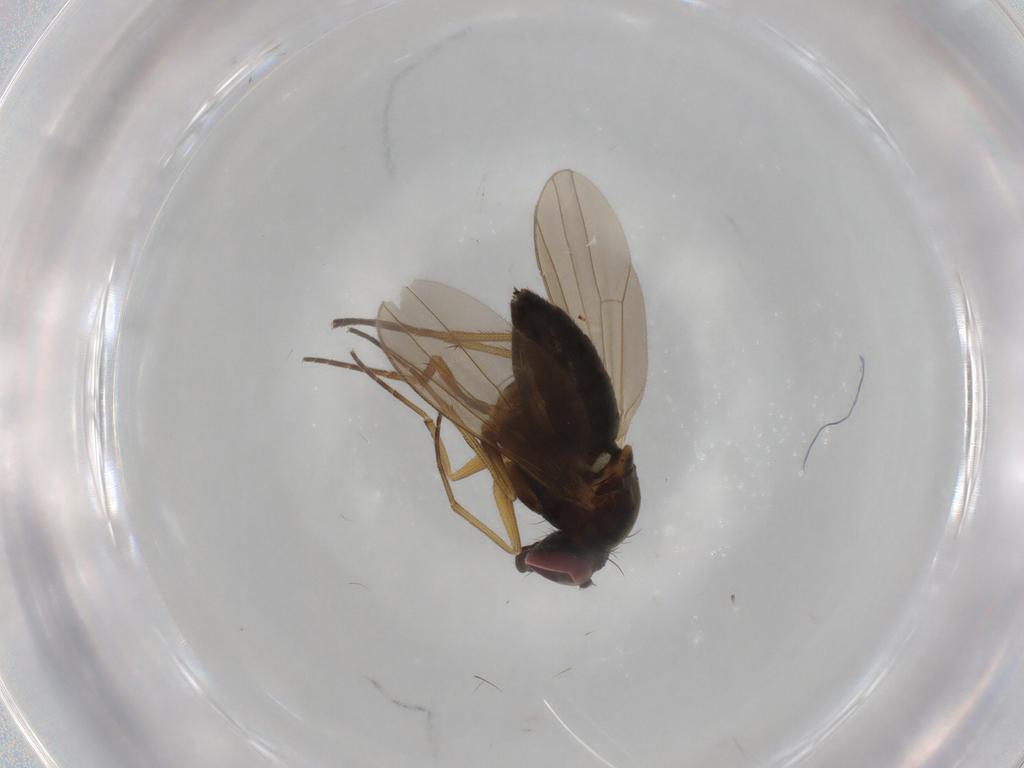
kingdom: Animalia
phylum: Arthropoda
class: Insecta
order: Diptera
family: Muscidae
